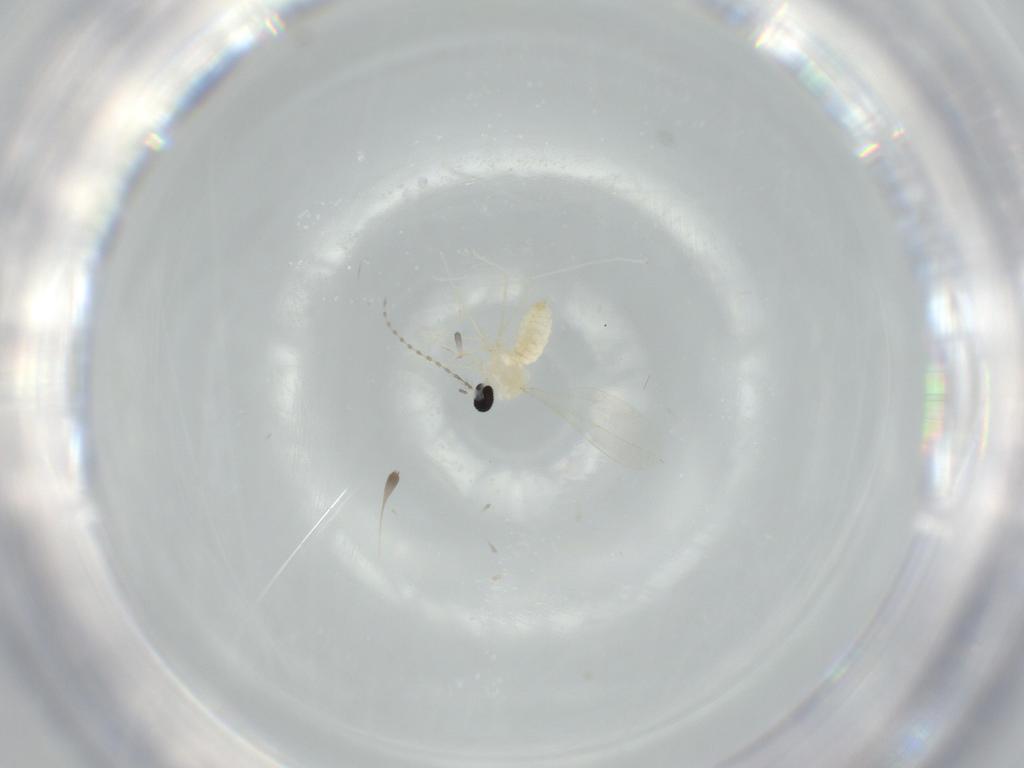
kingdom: Animalia
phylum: Arthropoda
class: Insecta
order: Diptera
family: Cecidomyiidae
